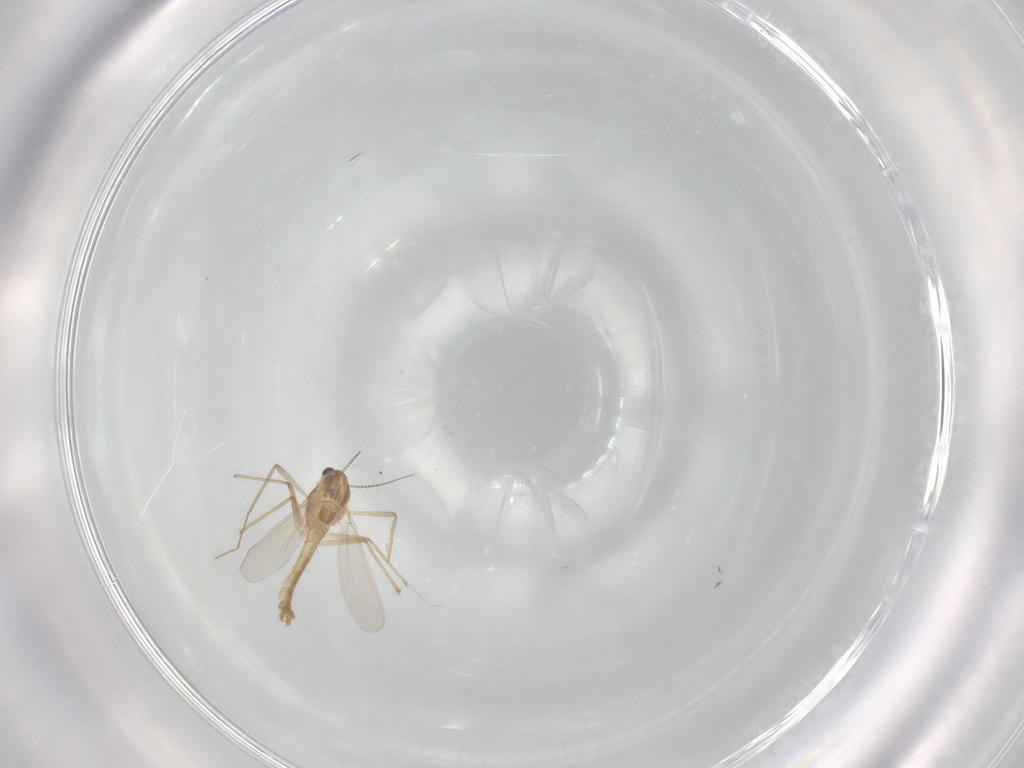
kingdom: Animalia
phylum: Arthropoda
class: Insecta
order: Diptera
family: Chironomidae
